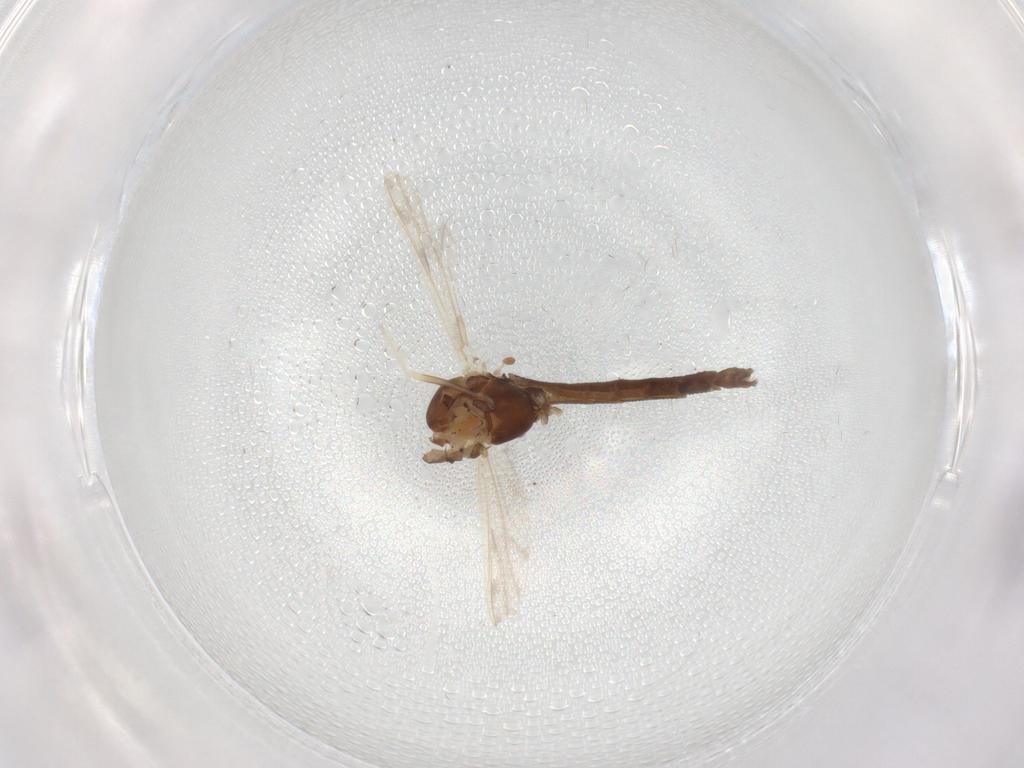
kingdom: Animalia
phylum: Arthropoda
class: Insecta
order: Diptera
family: Chironomidae
